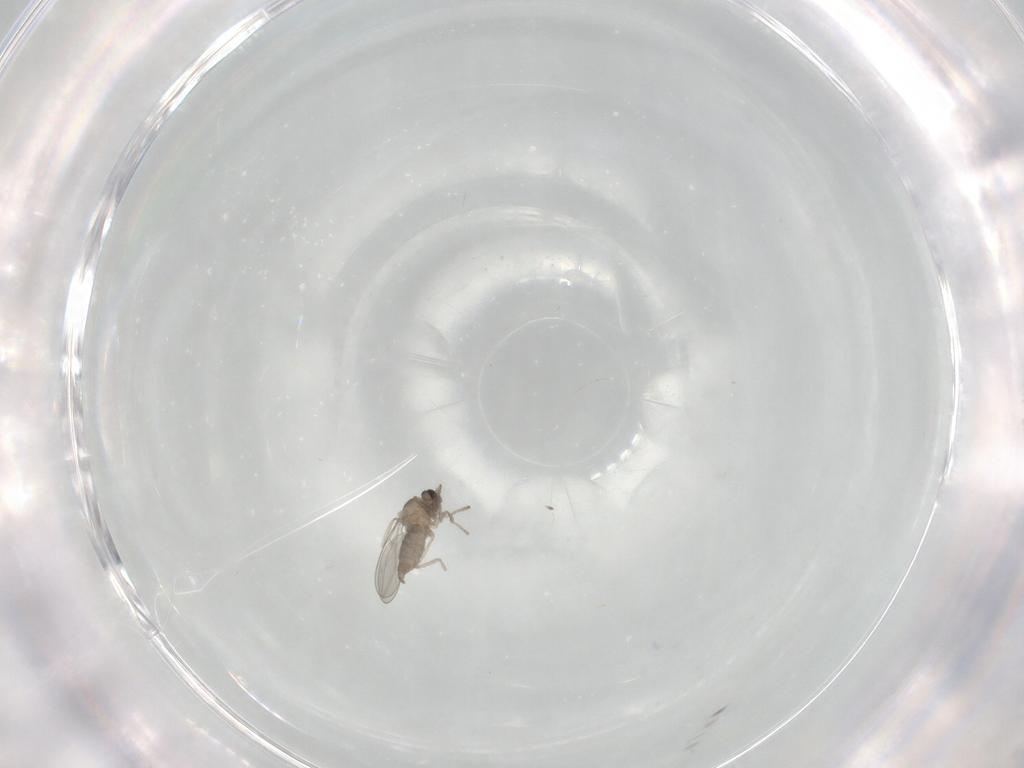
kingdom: Animalia
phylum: Arthropoda
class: Insecta
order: Diptera
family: Cecidomyiidae
